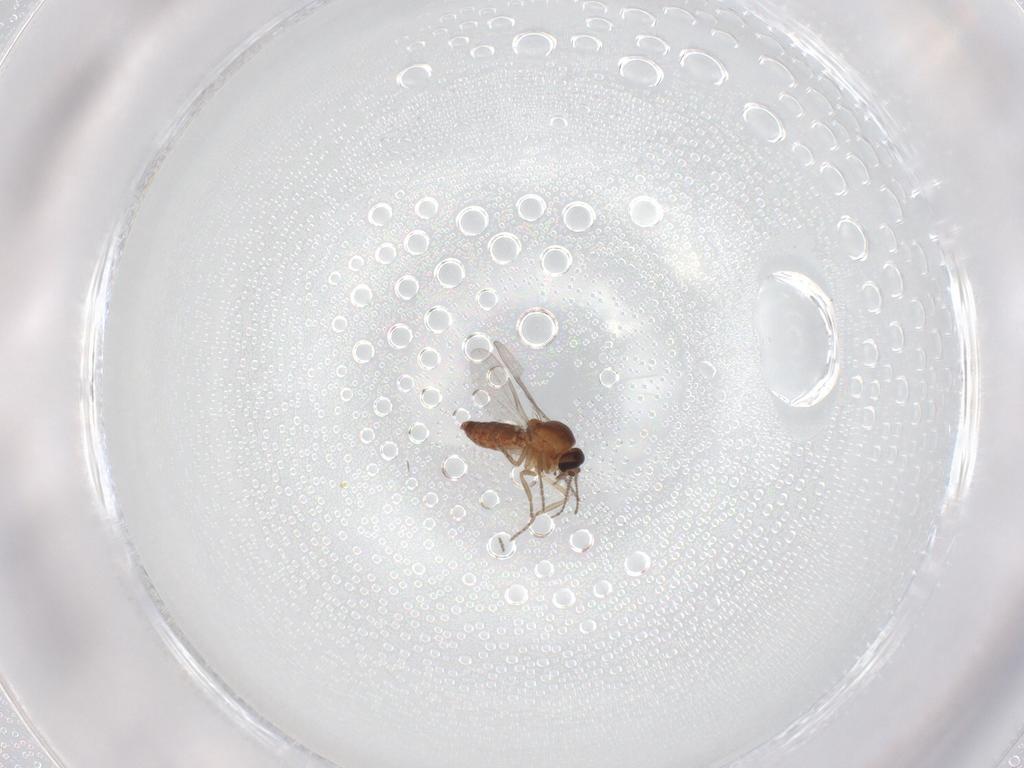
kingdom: Animalia
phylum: Arthropoda
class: Insecta
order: Diptera
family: Ceratopogonidae
